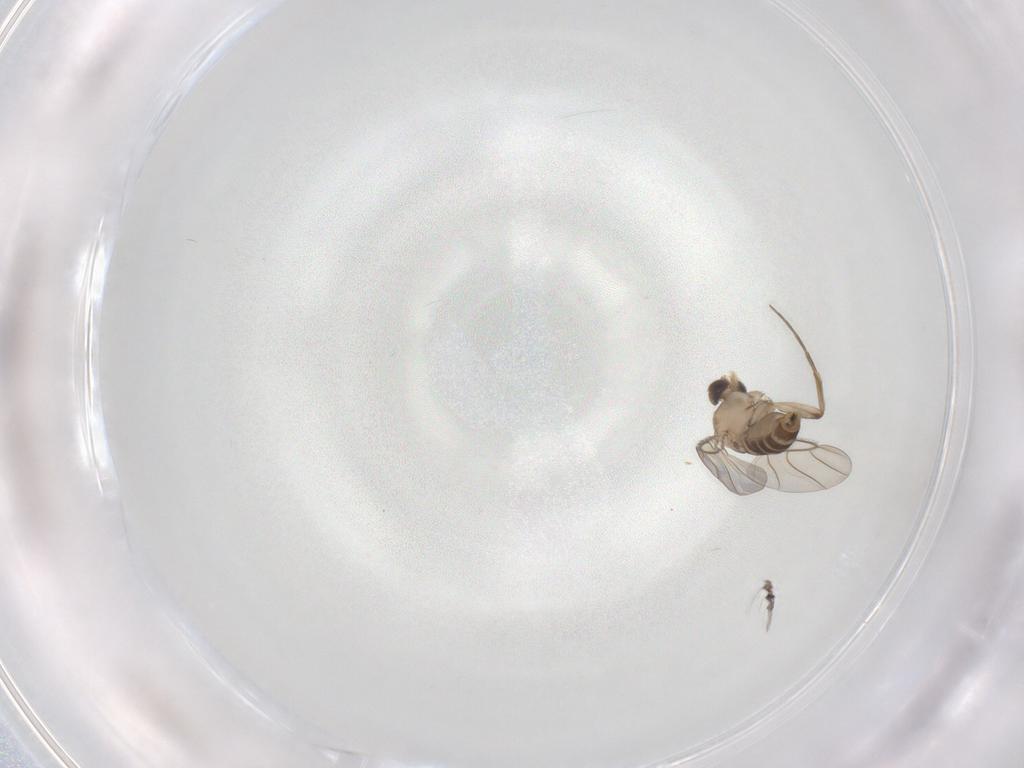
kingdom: Animalia
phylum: Arthropoda
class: Insecta
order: Diptera
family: Phoridae
